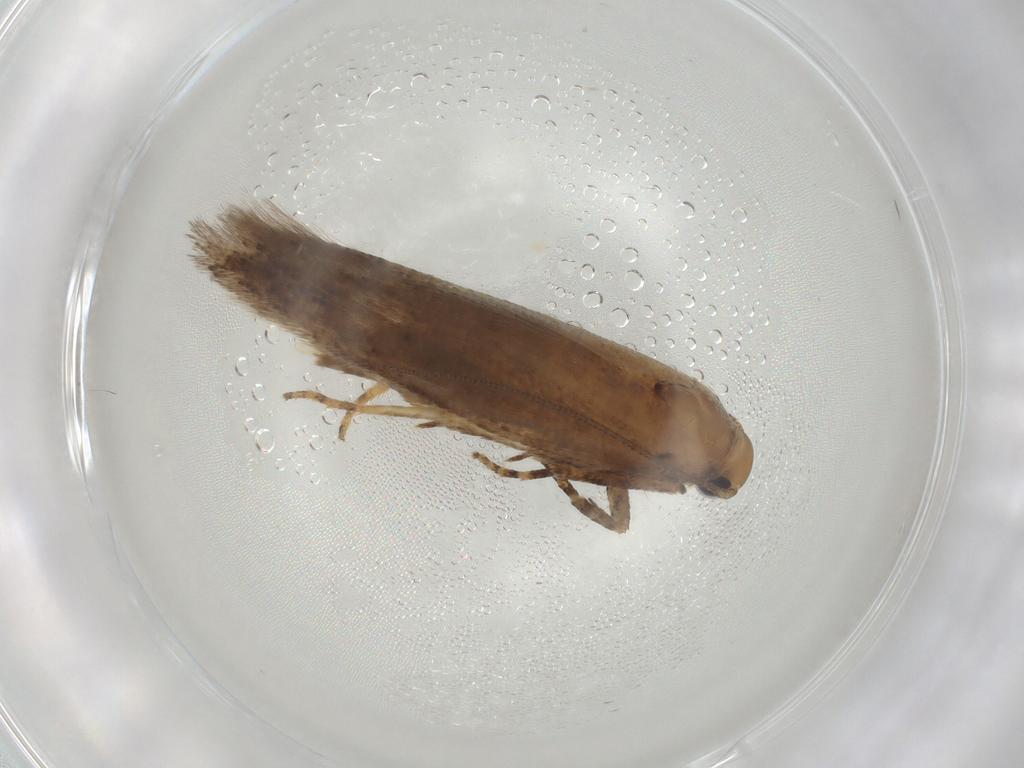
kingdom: Animalia
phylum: Arthropoda
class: Insecta
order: Lepidoptera
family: Gelechiidae
